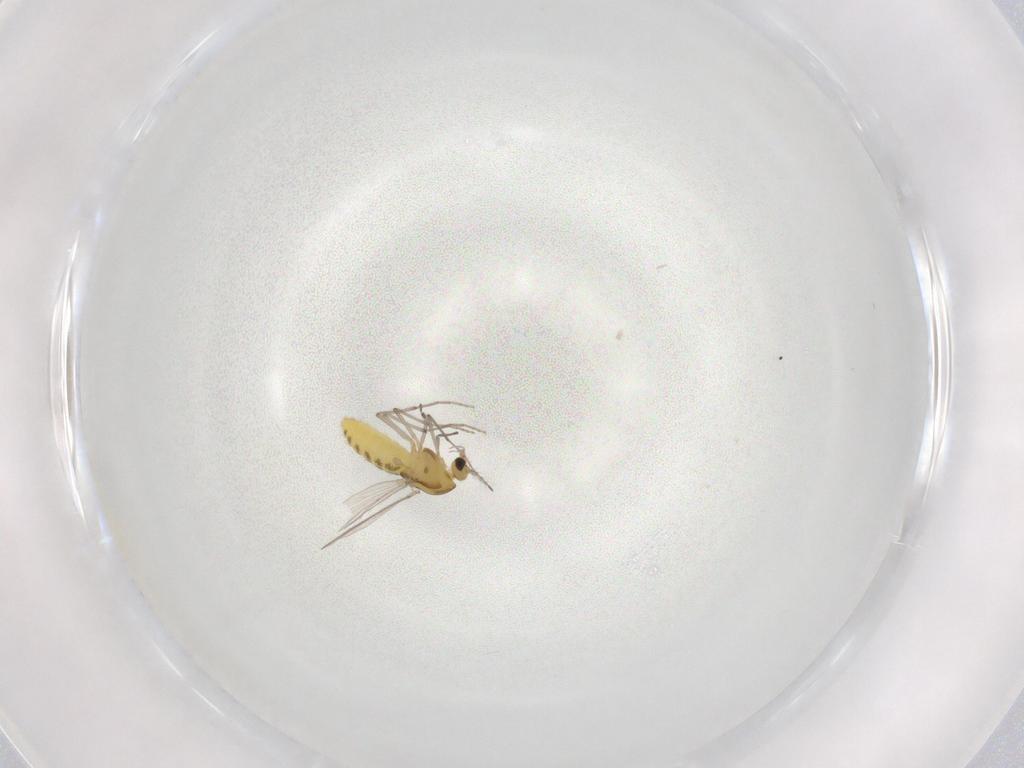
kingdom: Animalia
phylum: Arthropoda
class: Insecta
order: Diptera
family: Chironomidae
